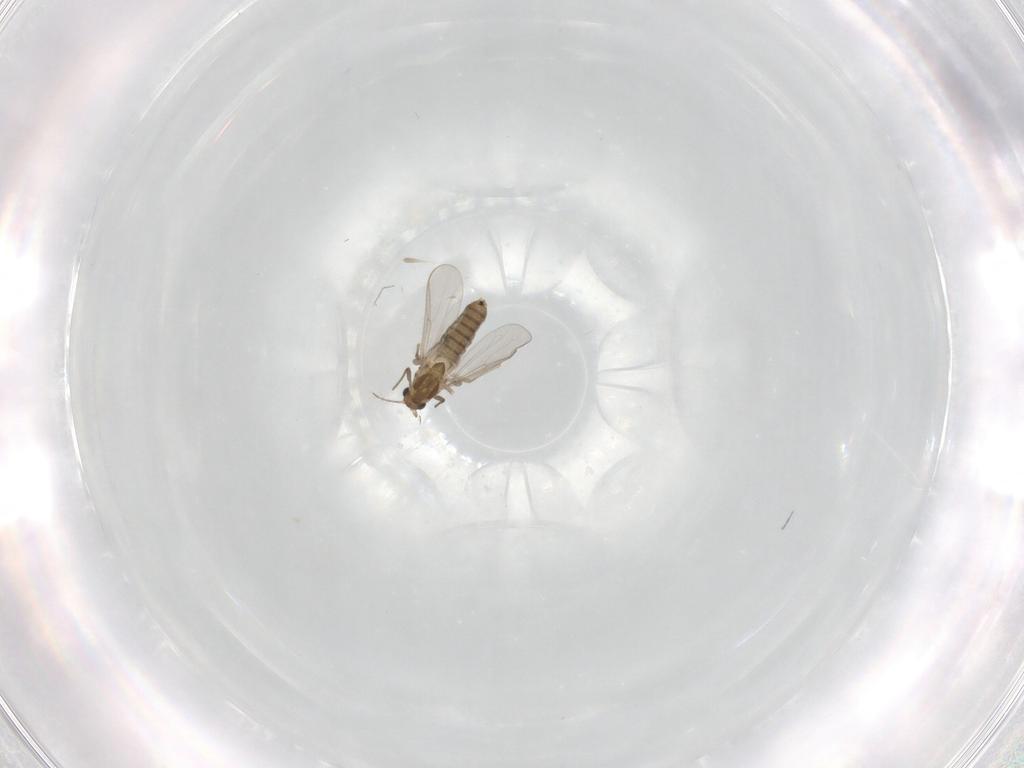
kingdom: Animalia
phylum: Arthropoda
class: Insecta
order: Diptera
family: Chironomidae
